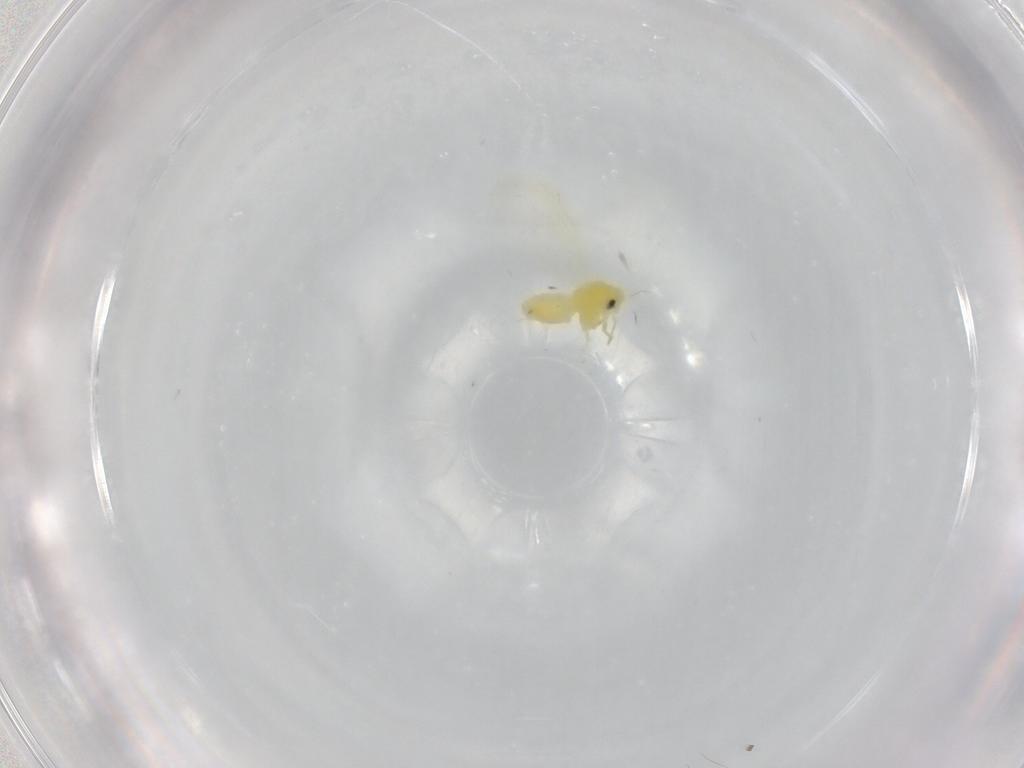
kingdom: Animalia
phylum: Arthropoda
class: Insecta
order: Hemiptera
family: Aleyrodidae
